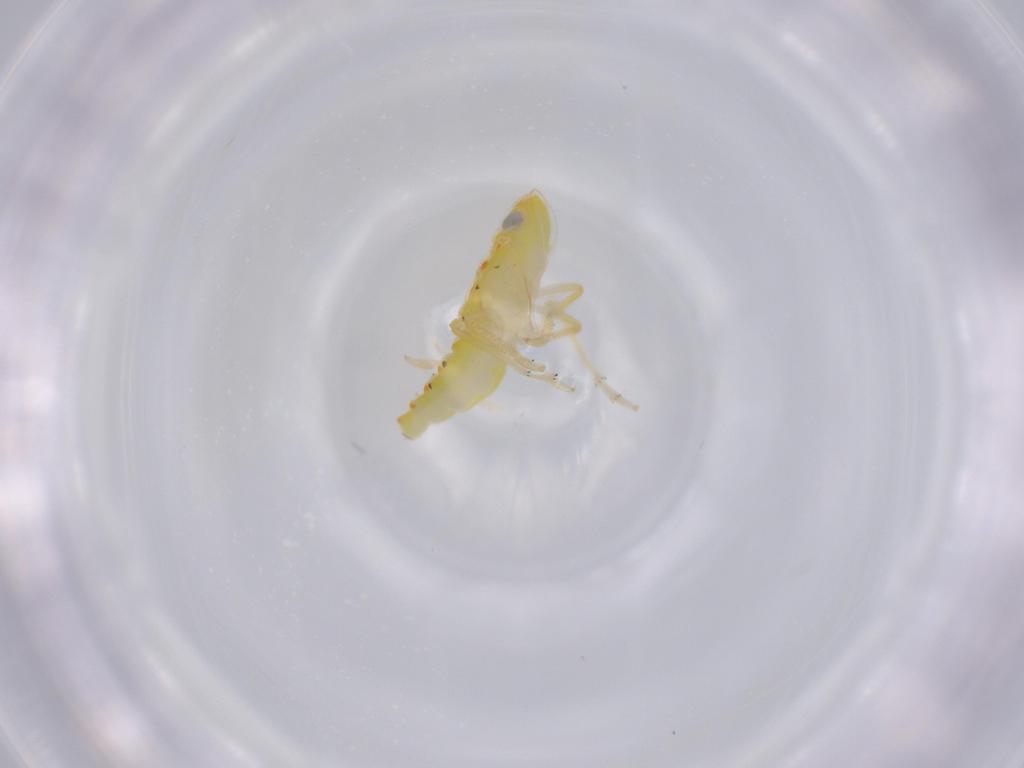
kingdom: Animalia
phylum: Arthropoda
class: Insecta
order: Hemiptera
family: Tropiduchidae
